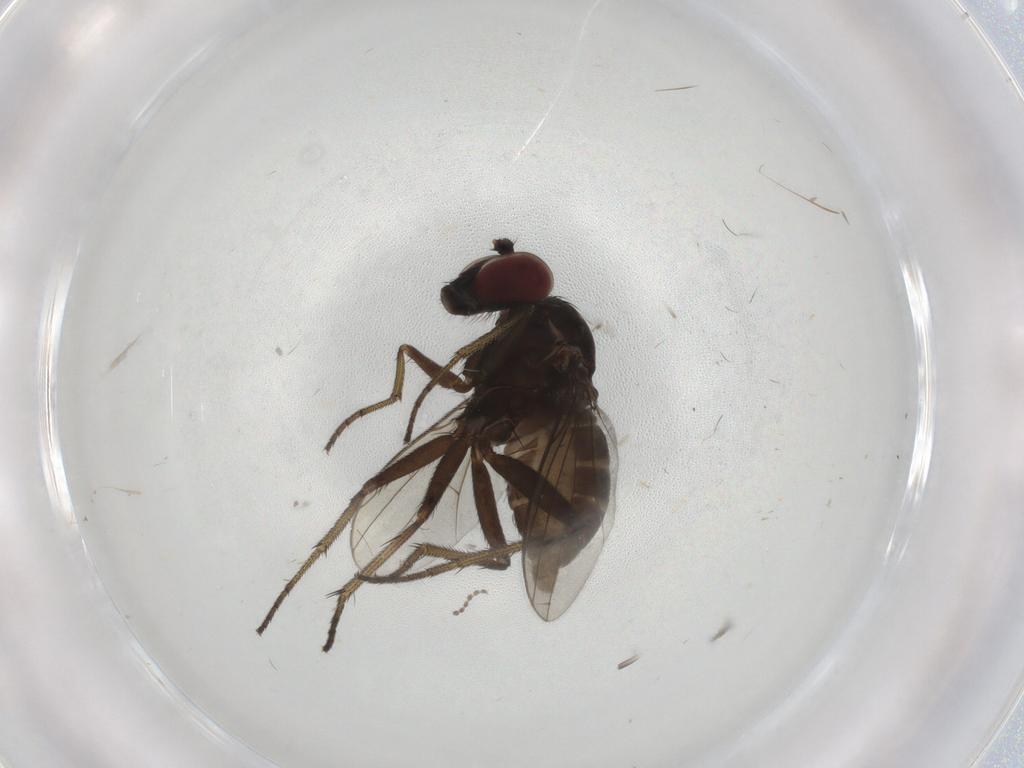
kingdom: Animalia
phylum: Arthropoda
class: Insecta
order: Diptera
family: Dolichopodidae
